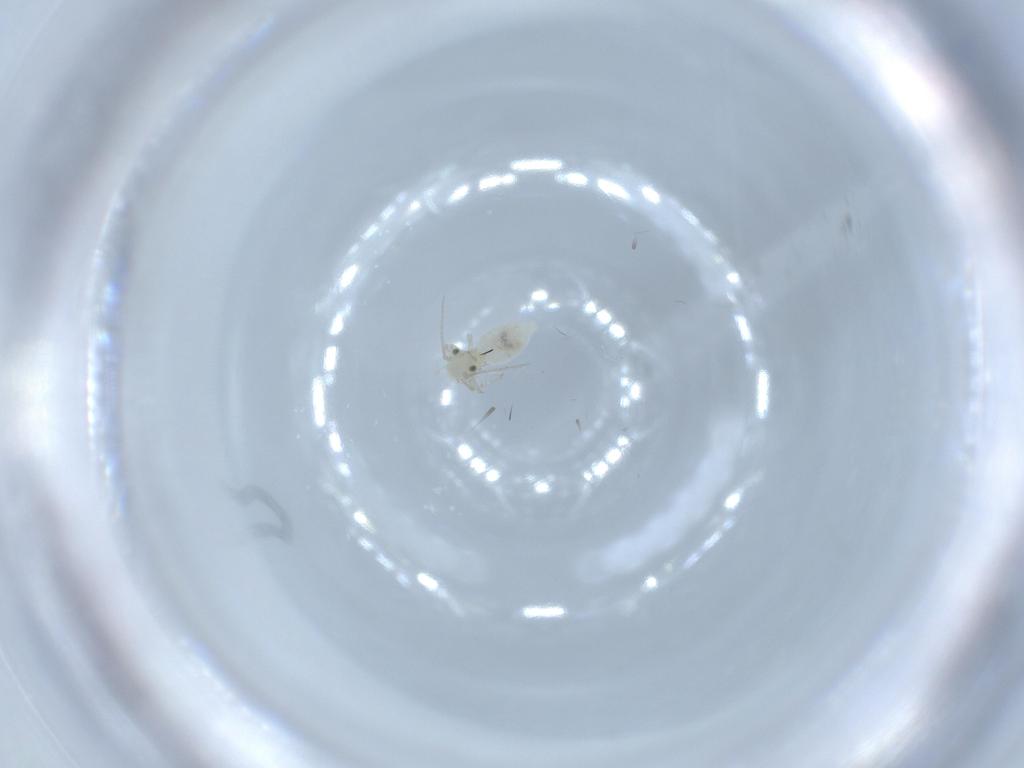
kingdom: Animalia
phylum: Arthropoda
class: Insecta
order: Psocodea
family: Caeciliusidae
